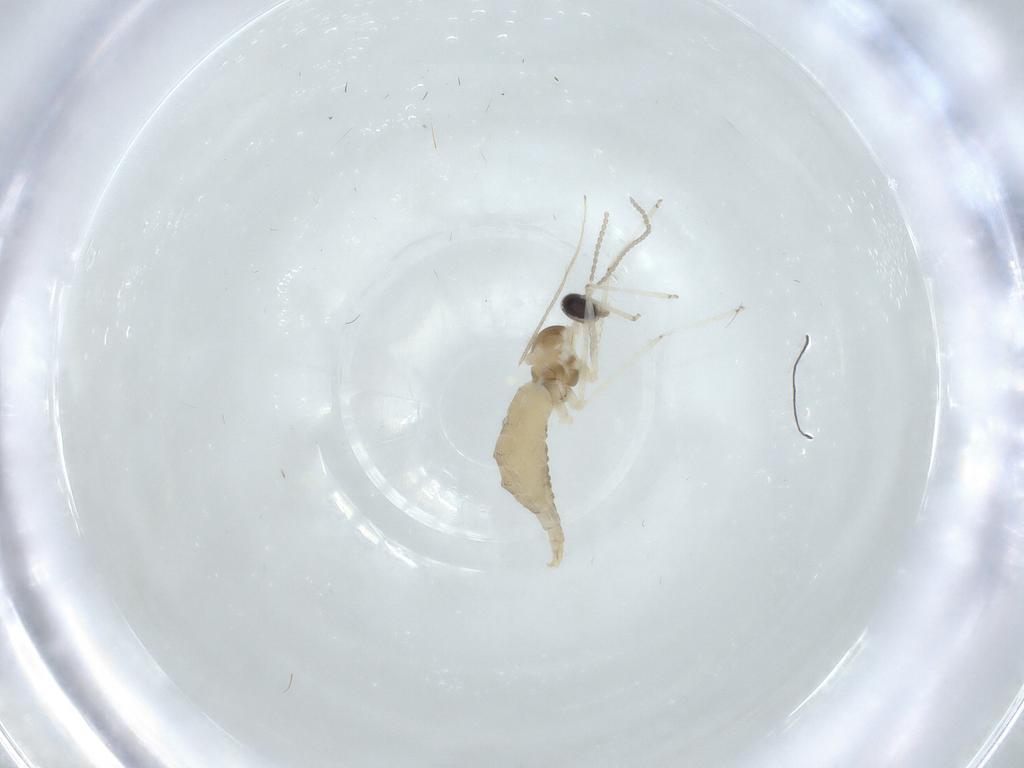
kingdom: Animalia
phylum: Arthropoda
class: Insecta
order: Diptera
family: Cecidomyiidae
